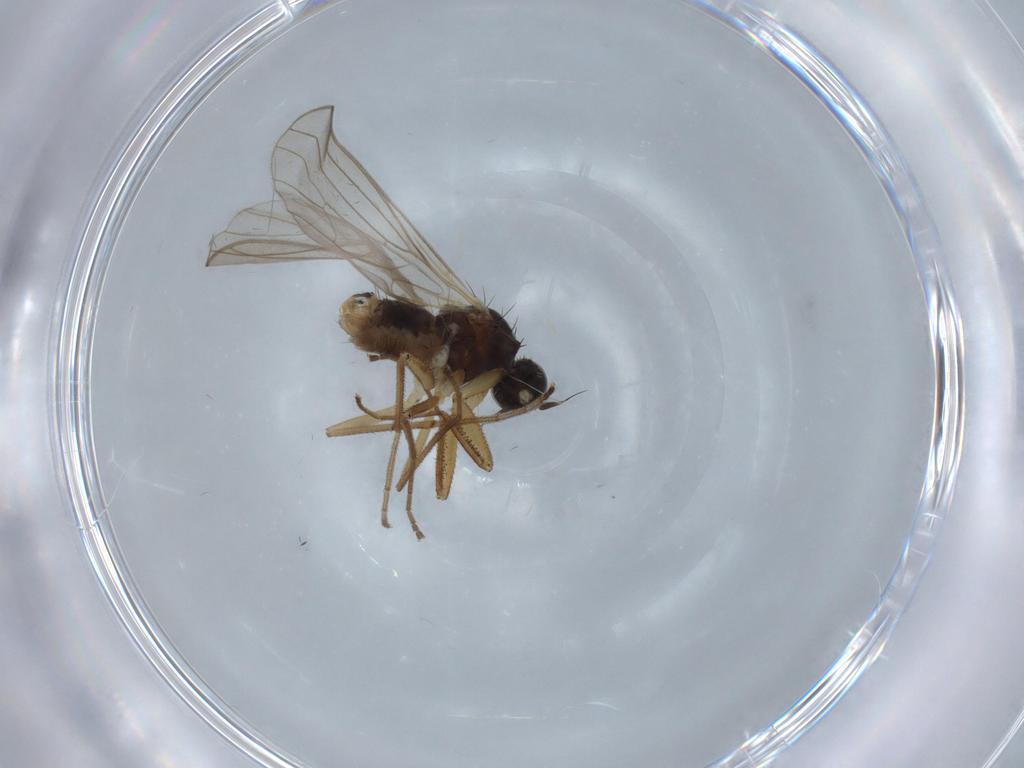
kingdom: Animalia
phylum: Arthropoda
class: Insecta
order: Diptera
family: Empididae
